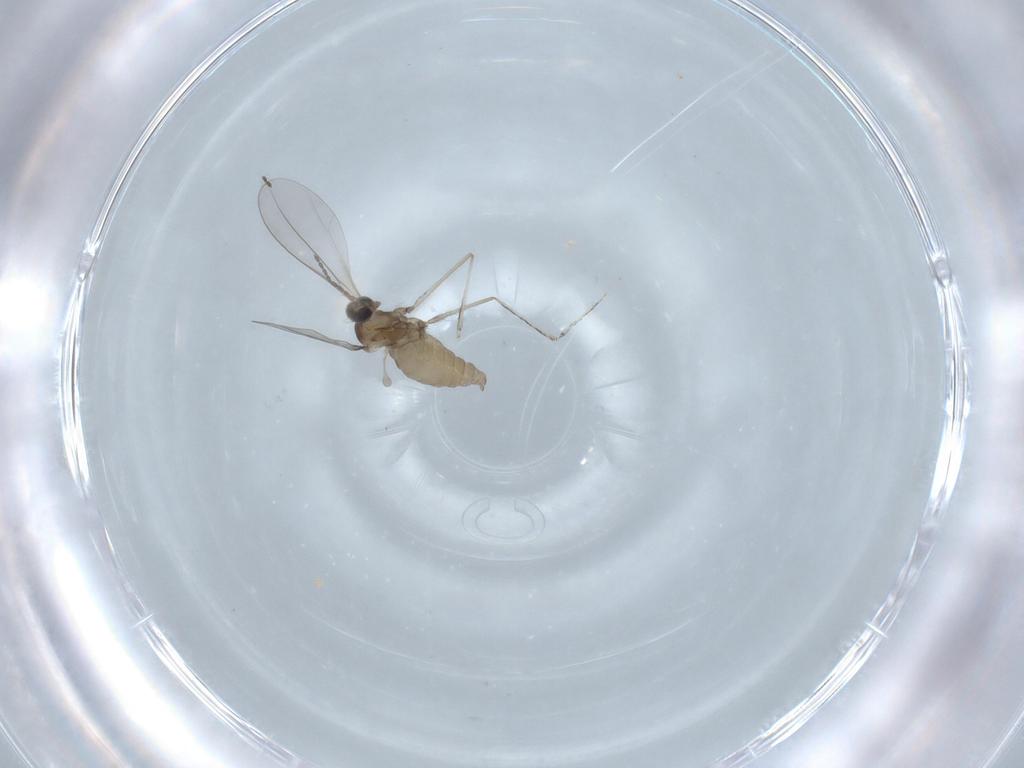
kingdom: Animalia
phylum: Arthropoda
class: Insecta
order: Diptera
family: Cecidomyiidae
